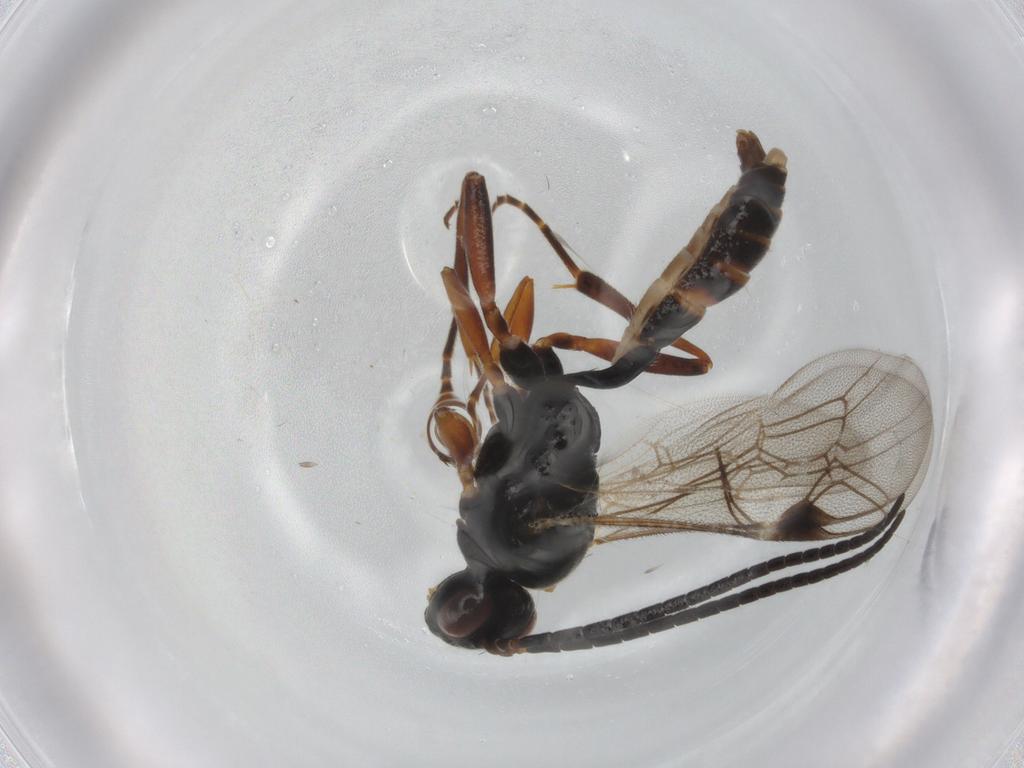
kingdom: Animalia
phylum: Arthropoda
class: Insecta
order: Hymenoptera
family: Ichneumonidae
